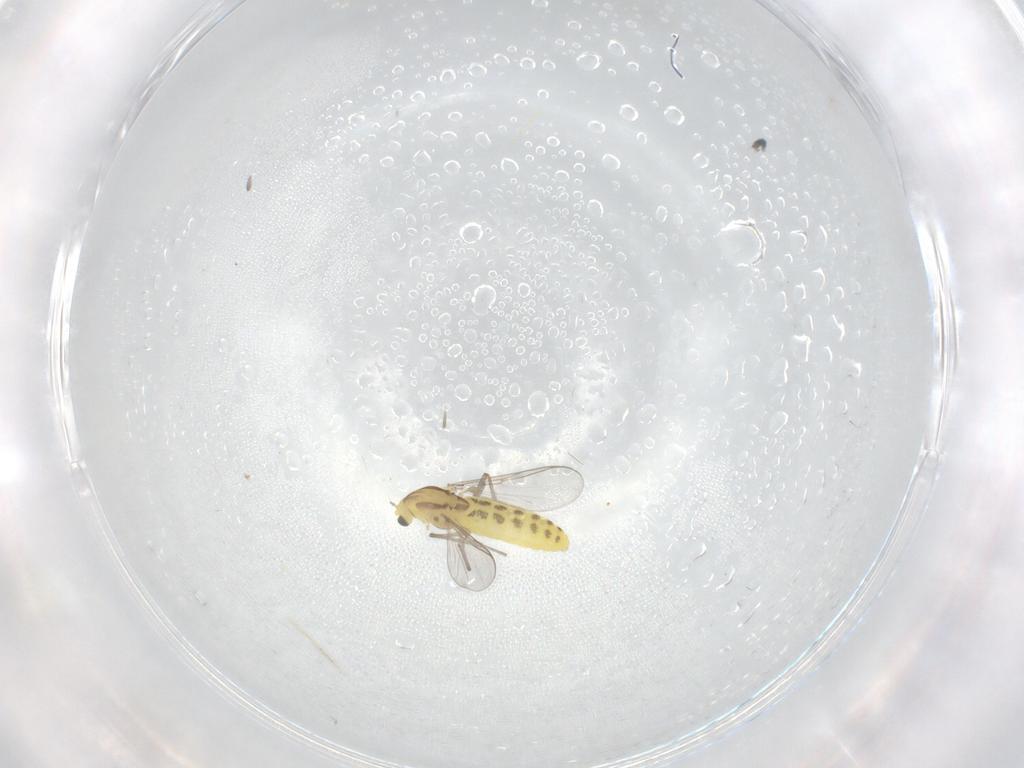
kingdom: Animalia
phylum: Arthropoda
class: Insecta
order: Diptera
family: Chironomidae
